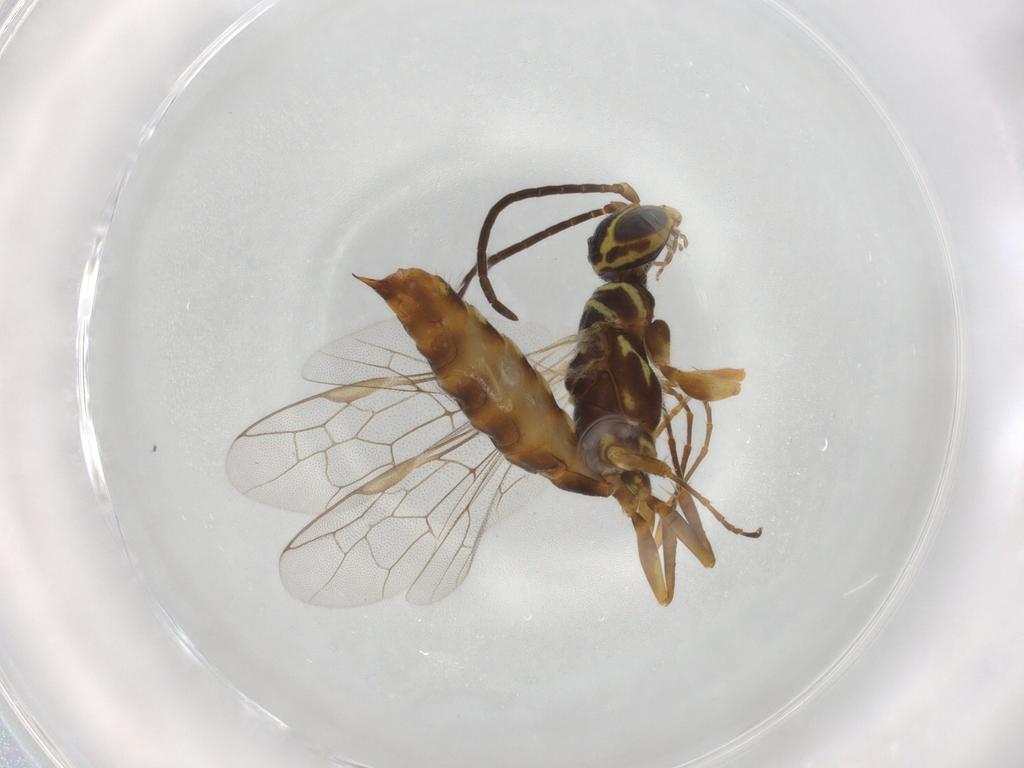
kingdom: Animalia
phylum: Arthropoda
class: Insecta
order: Hymenoptera
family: Thynnidae
